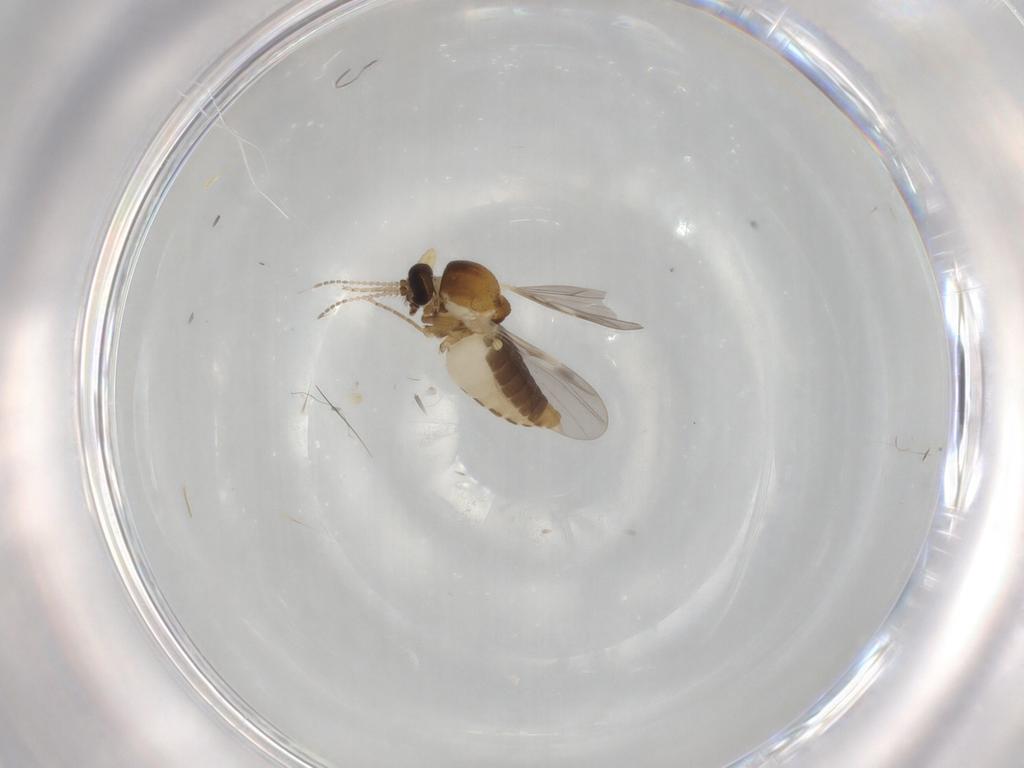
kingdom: Animalia
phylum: Arthropoda
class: Insecta
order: Diptera
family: Ceratopogonidae
